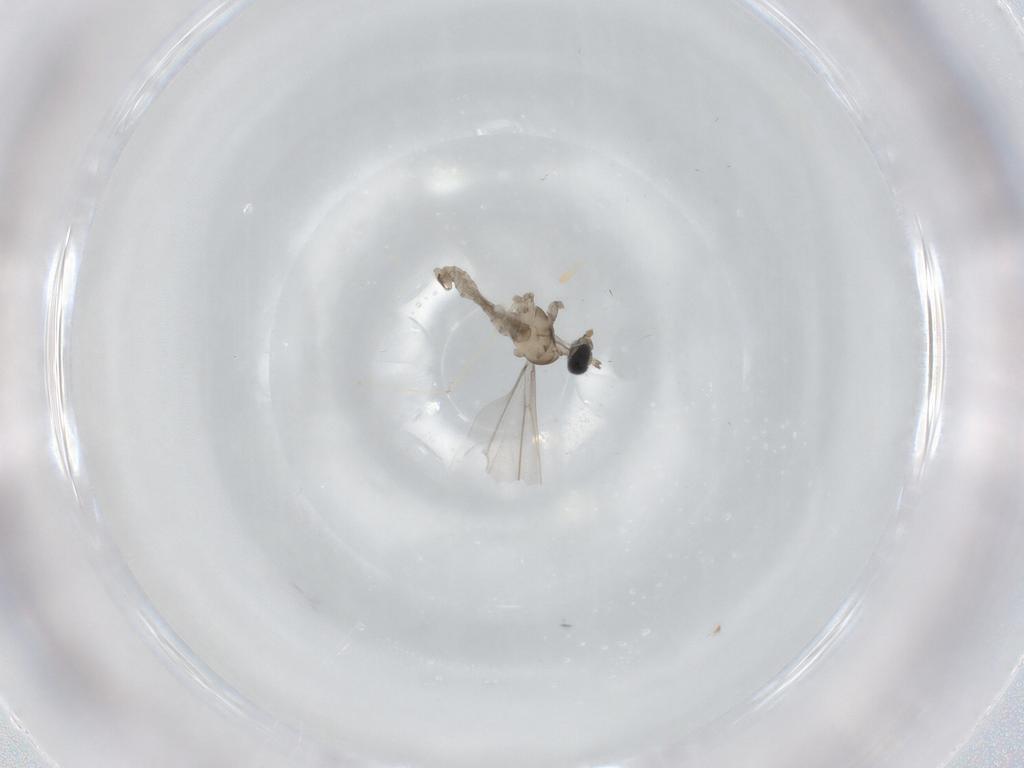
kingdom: Animalia
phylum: Arthropoda
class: Insecta
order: Diptera
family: Cecidomyiidae
